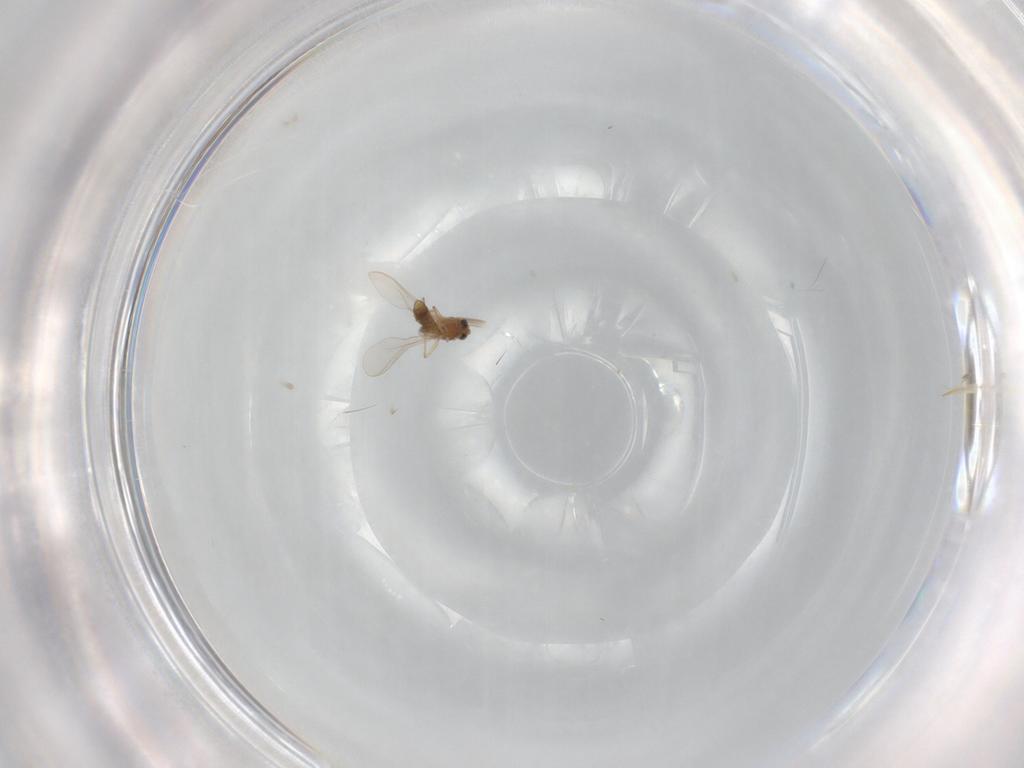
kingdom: Animalia
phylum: Arthropoda
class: Insecta
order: Diptera
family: Chironomidae
